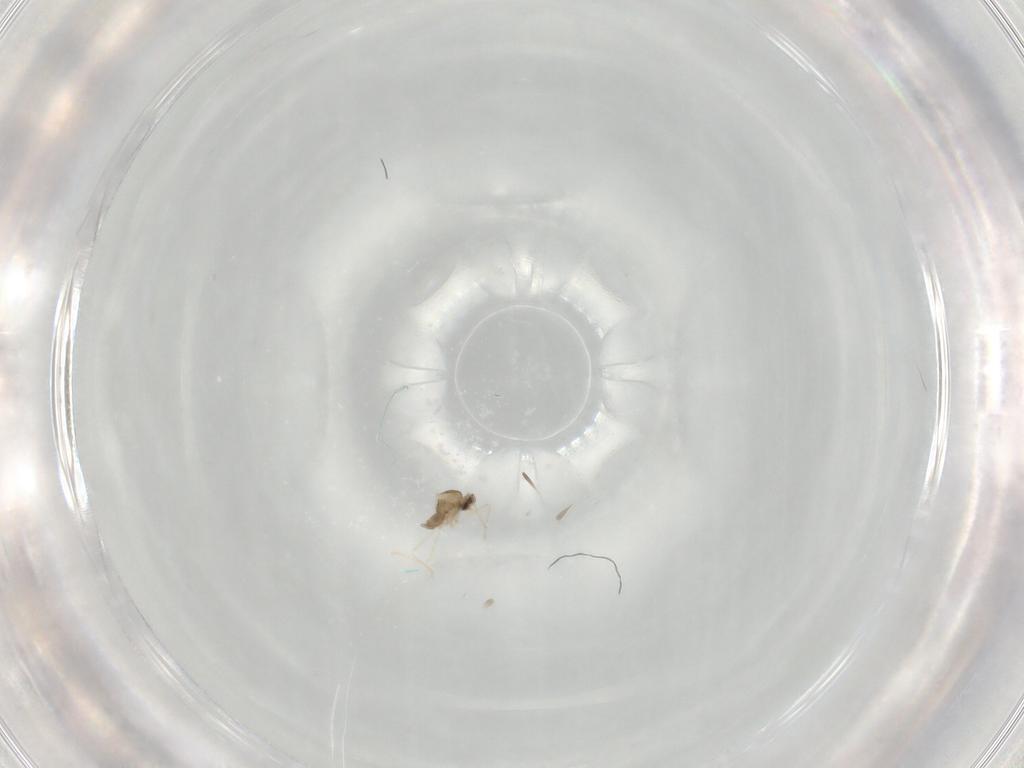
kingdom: Animalia
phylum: Arthropoda
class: Insecta
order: Diptera
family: Cecidomyiidae
